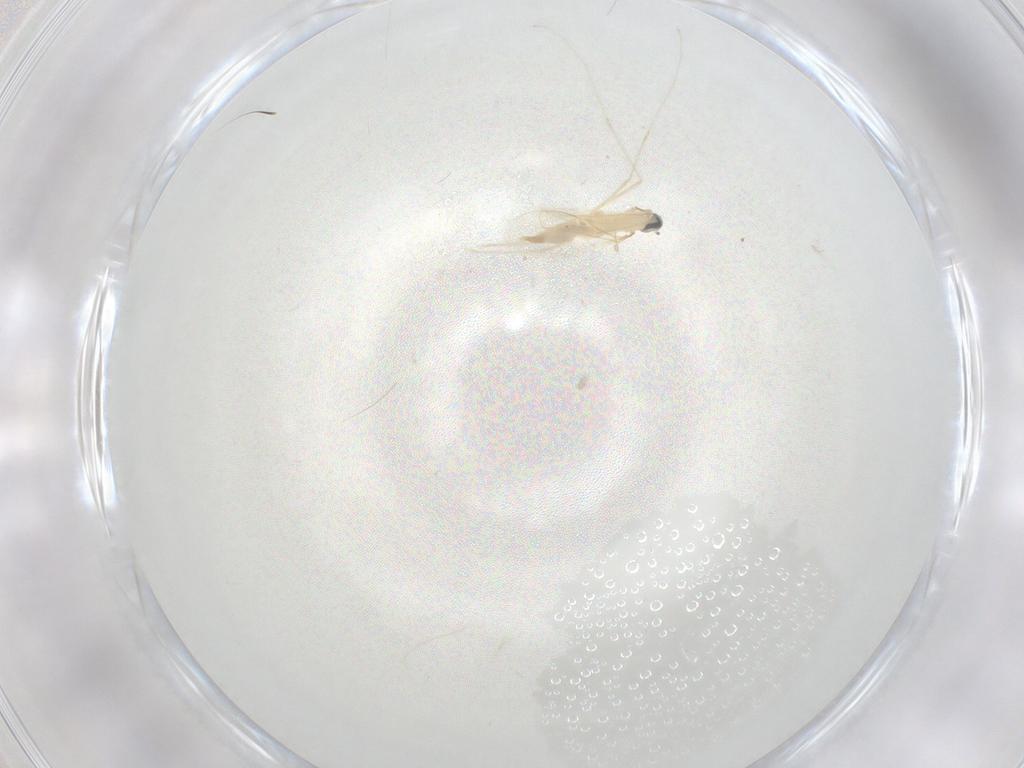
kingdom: Animalia
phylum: Arthropoda
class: Insecta
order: Diptera
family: Cecidomyiidae
